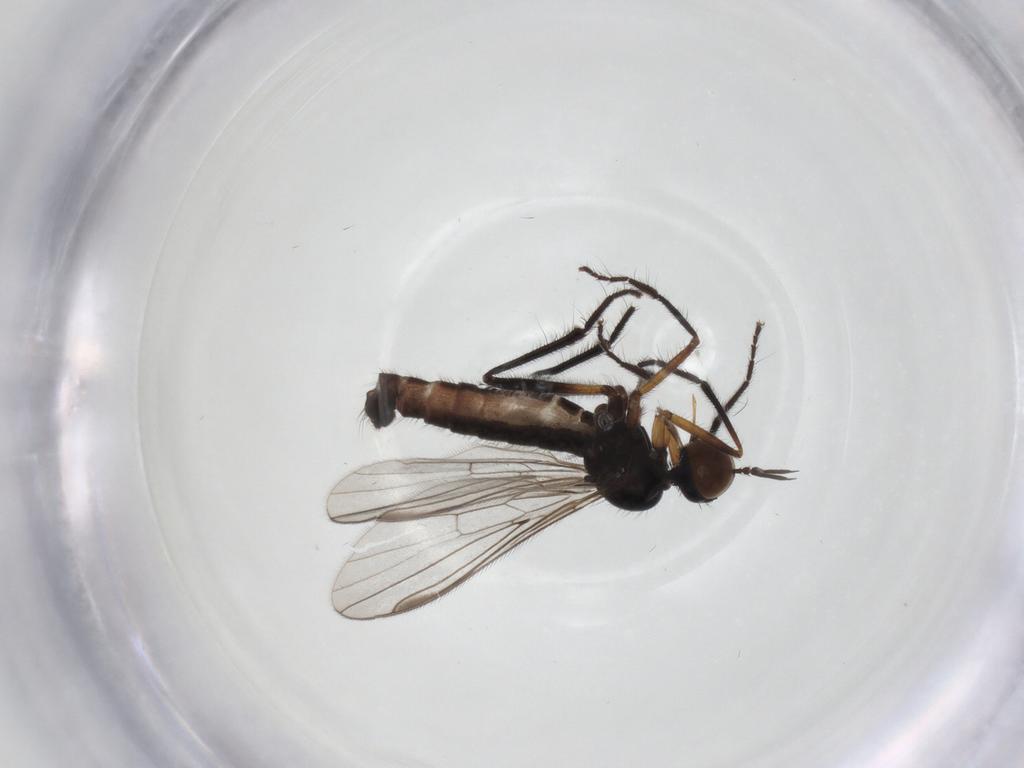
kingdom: Animalia
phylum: Arthropoda
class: Insecta
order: Diptera
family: Empididae
